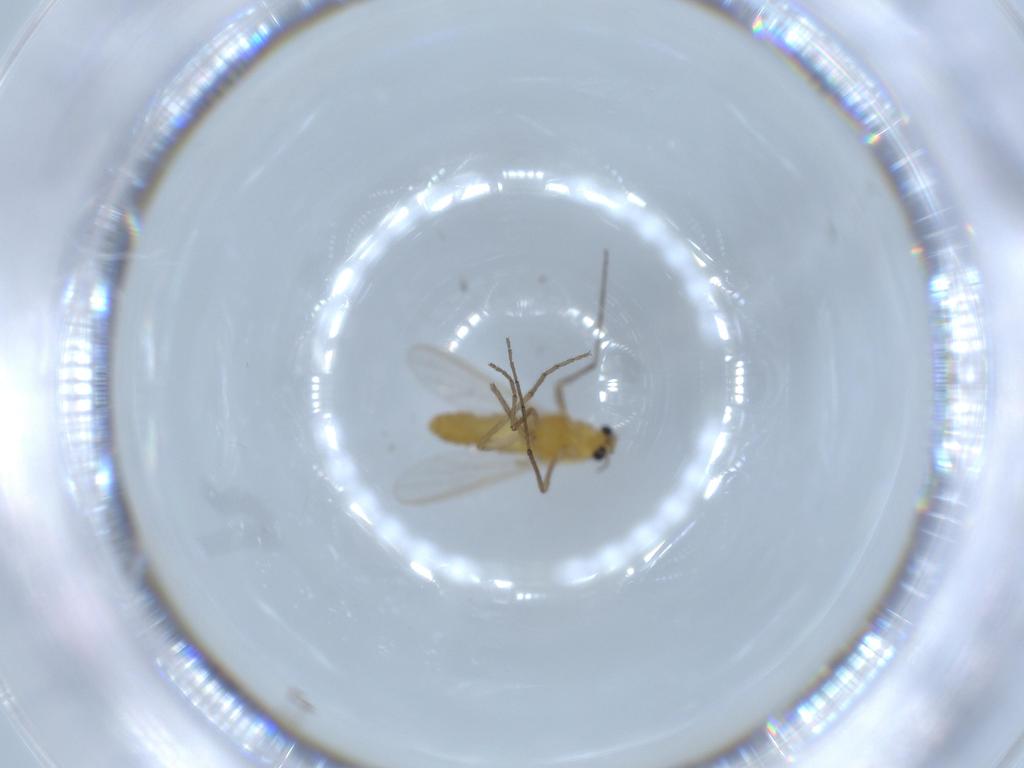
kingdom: Animalia
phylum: Arthropoda
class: Insecta
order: Diptera
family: Chironomidae
